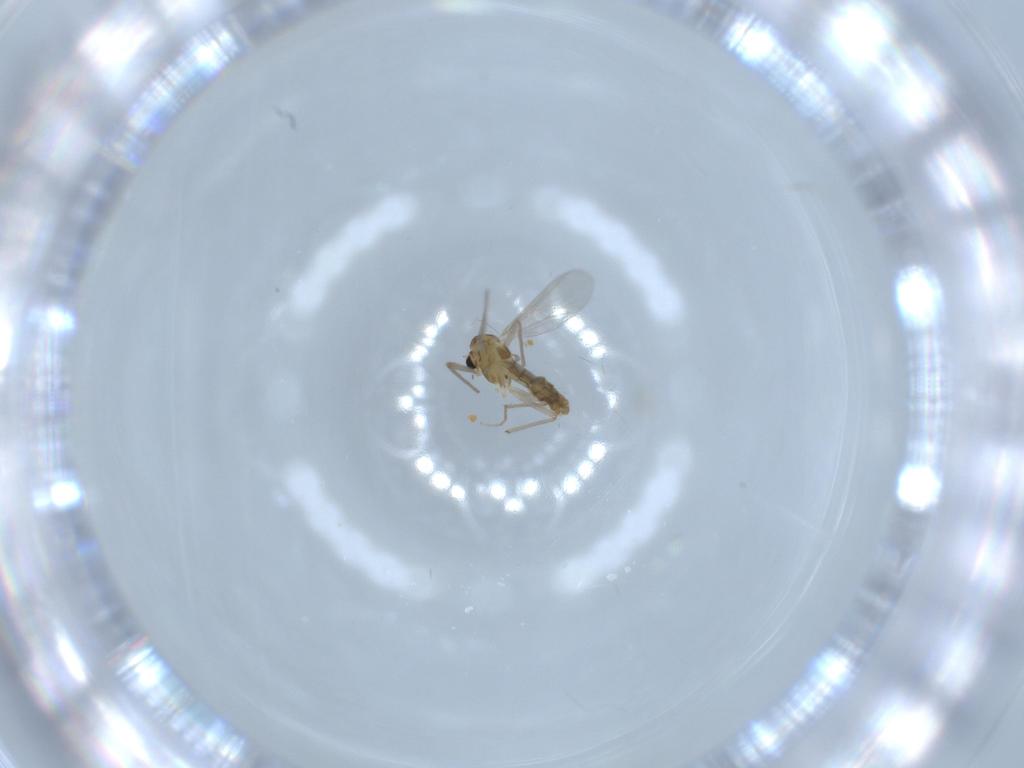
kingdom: Animalia
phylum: Arthropoda
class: Insecta
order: Diptera
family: Chironomidae
